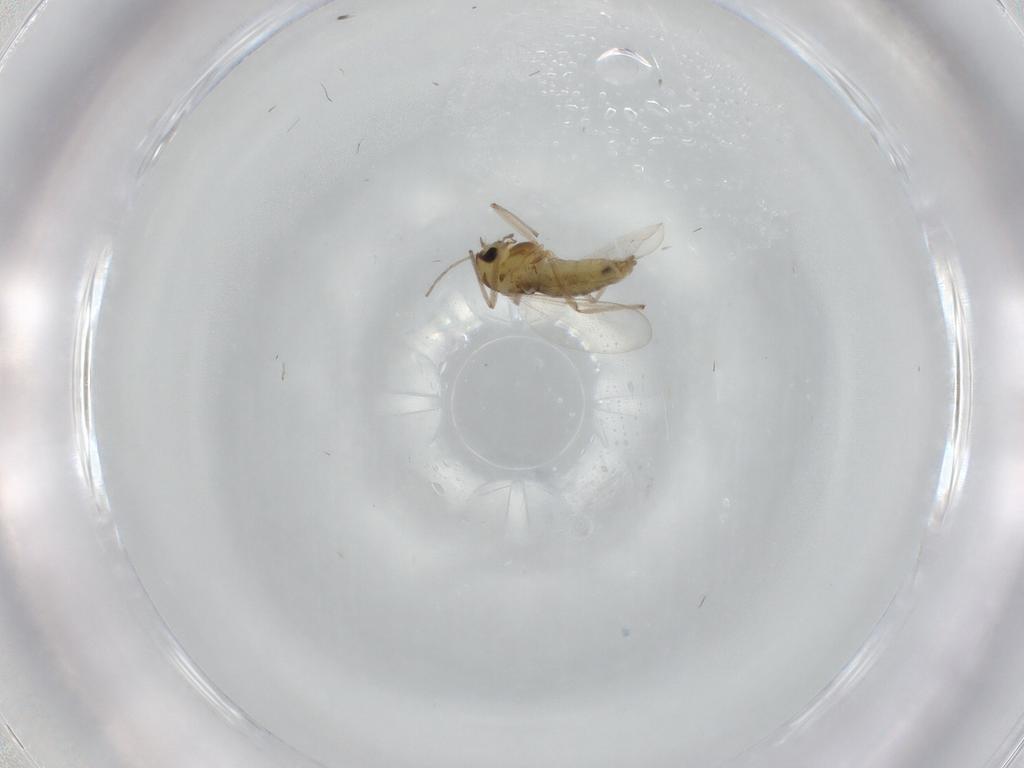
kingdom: Animalia
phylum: Arthropoda
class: Insecta
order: Diptera
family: Chironomidae
